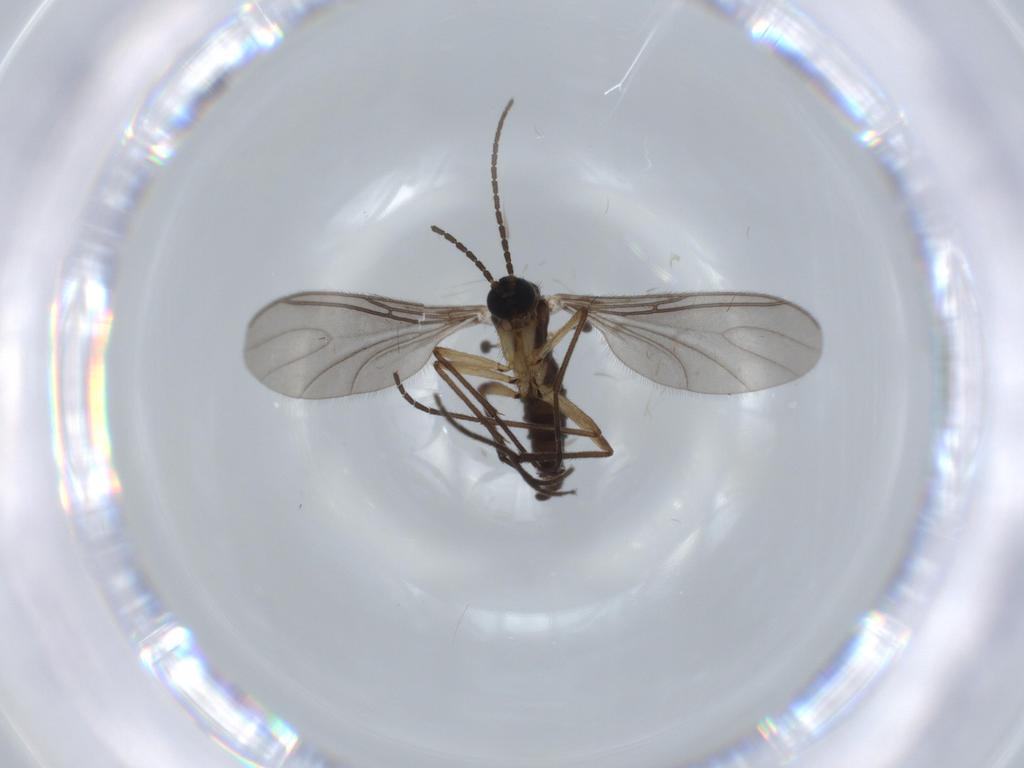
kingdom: Animalia
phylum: Arthropoda
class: Insecta
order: Diptera
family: Sciaridae
